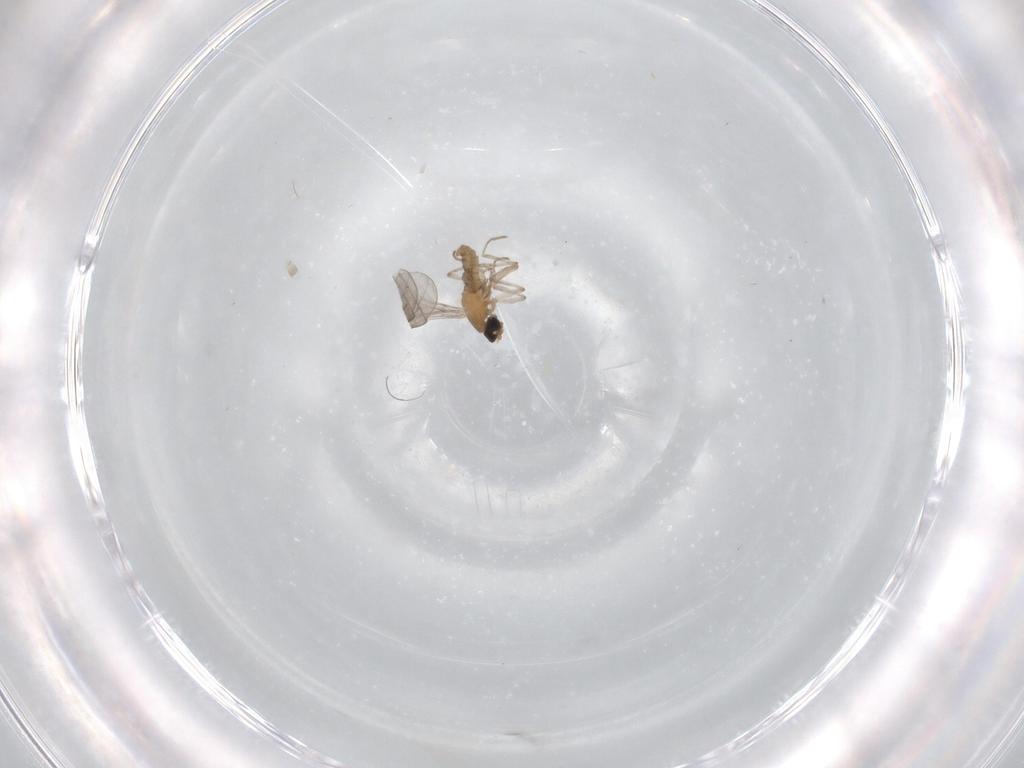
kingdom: Animalia
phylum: Arthropoda
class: Insecta
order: Diptera
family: Cecidomyiidae
